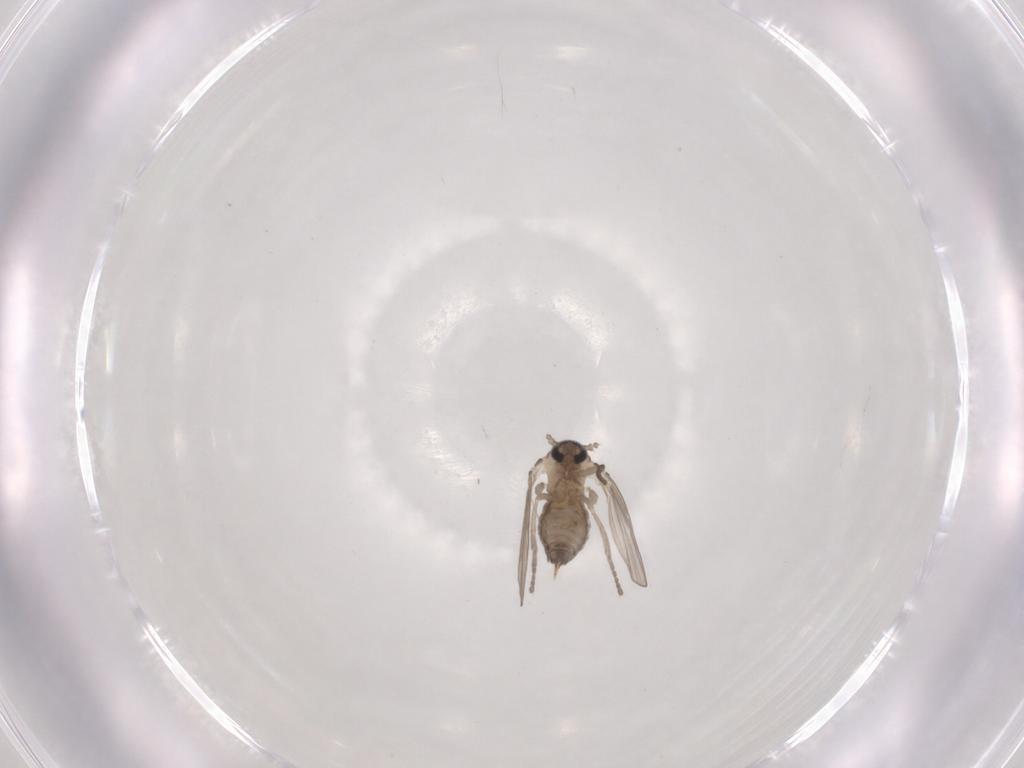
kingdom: Animalia
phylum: Arthropoda
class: Insecta
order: Diptera
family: Psychodidae
